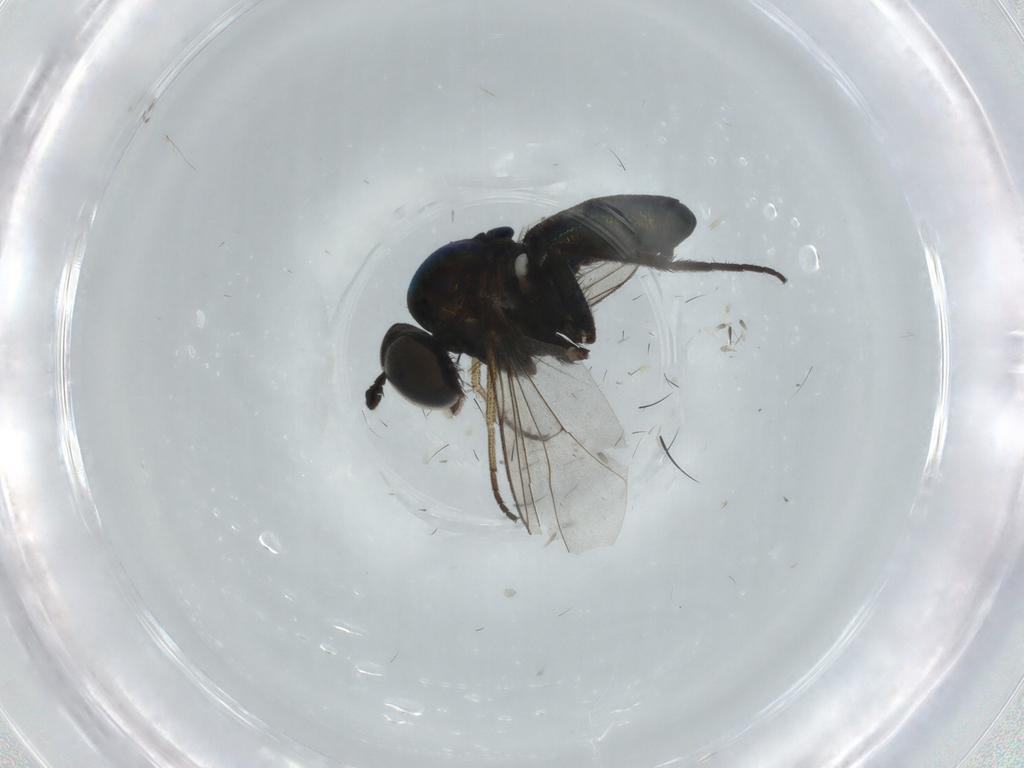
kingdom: Animalia
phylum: Arthropoda
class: Insecta
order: Diptera
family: Dolichopodidae
